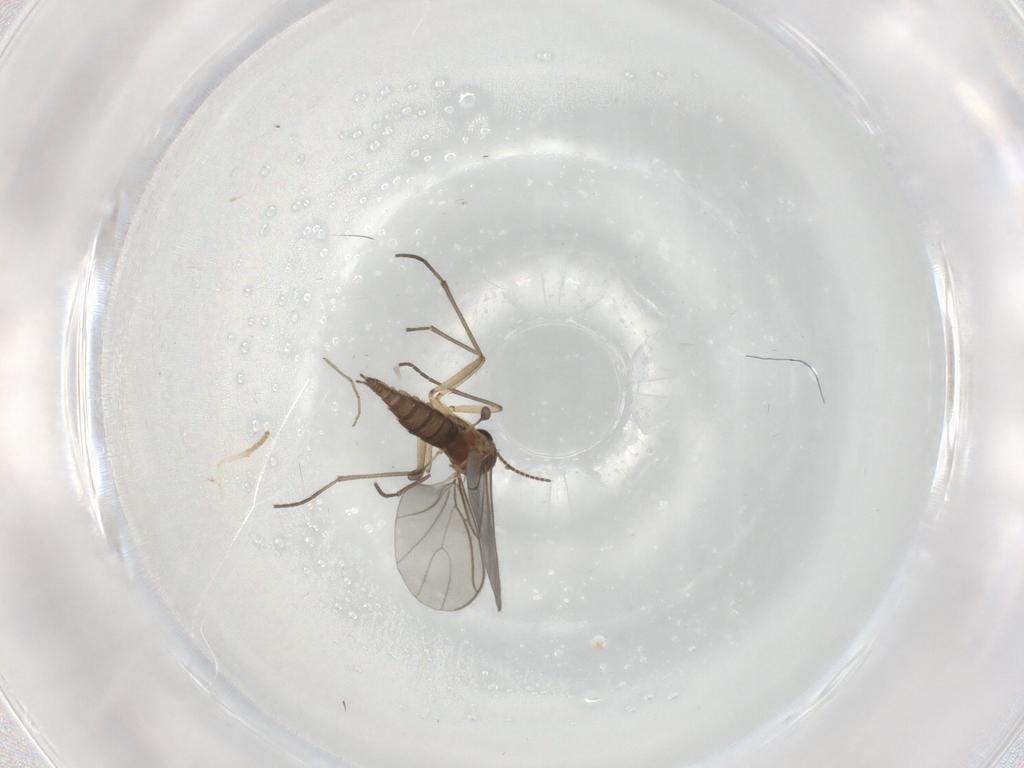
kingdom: Animalia
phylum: Arthropoda
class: Insecta
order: Diptera
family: Sciaridae
